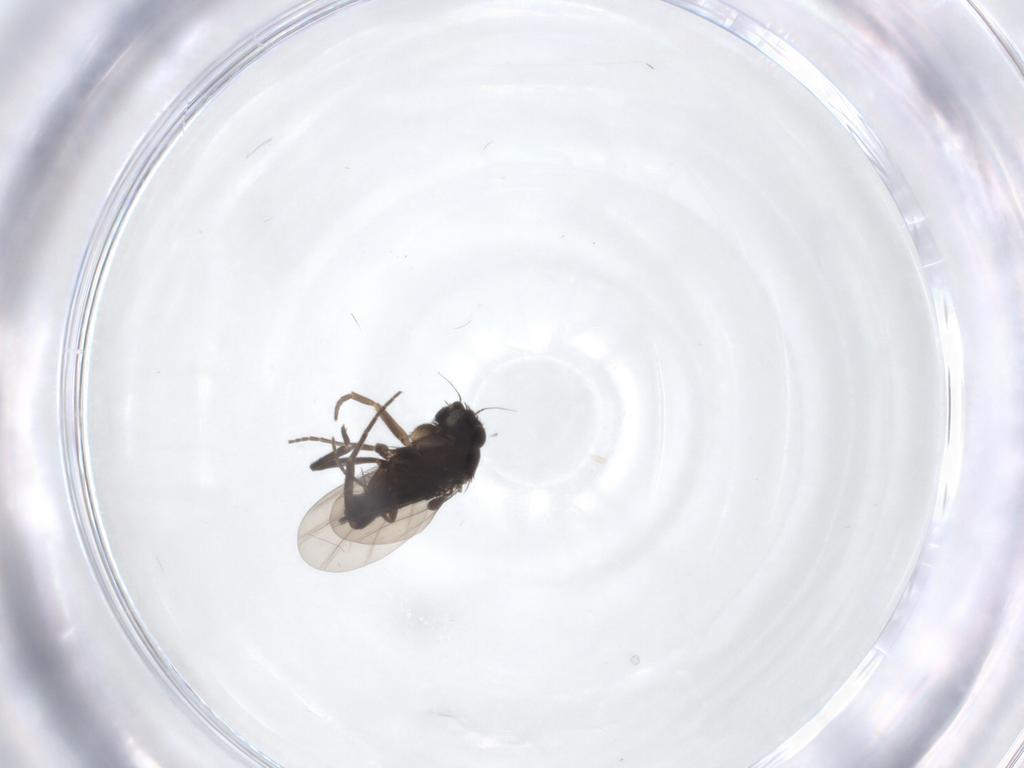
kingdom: Animalia
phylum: Arthropoda
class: Insecta
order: Diptera
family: Phoridae
